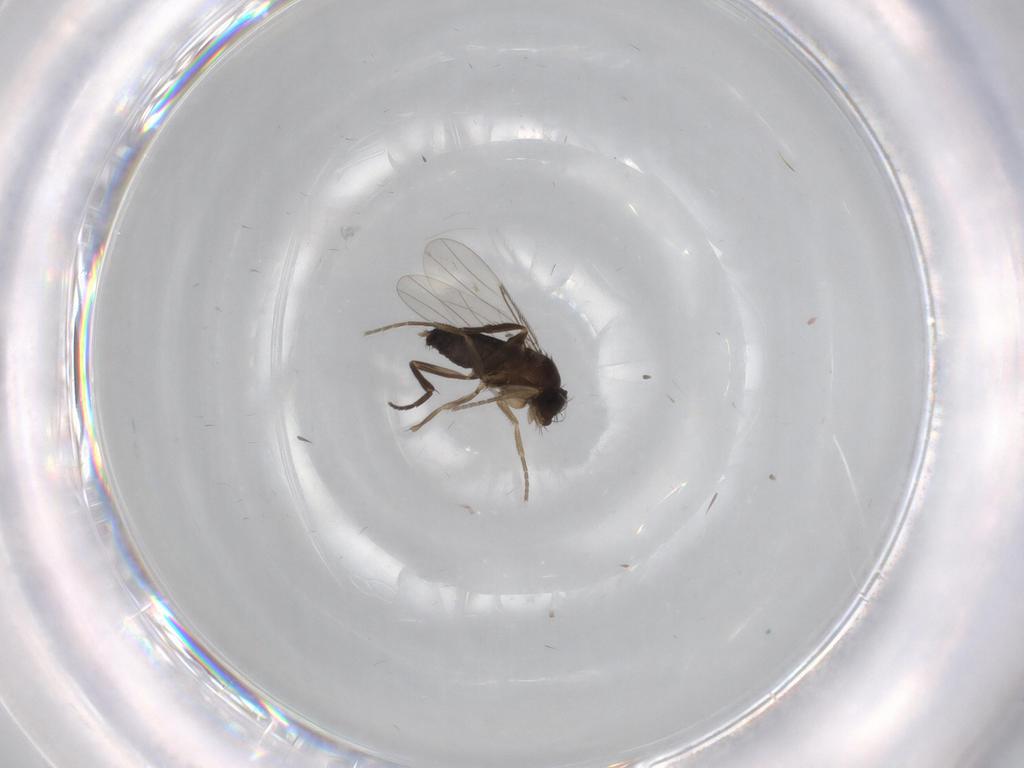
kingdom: Animalia
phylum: Arthropoda
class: Insecta
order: Diptera
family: Phoridae
